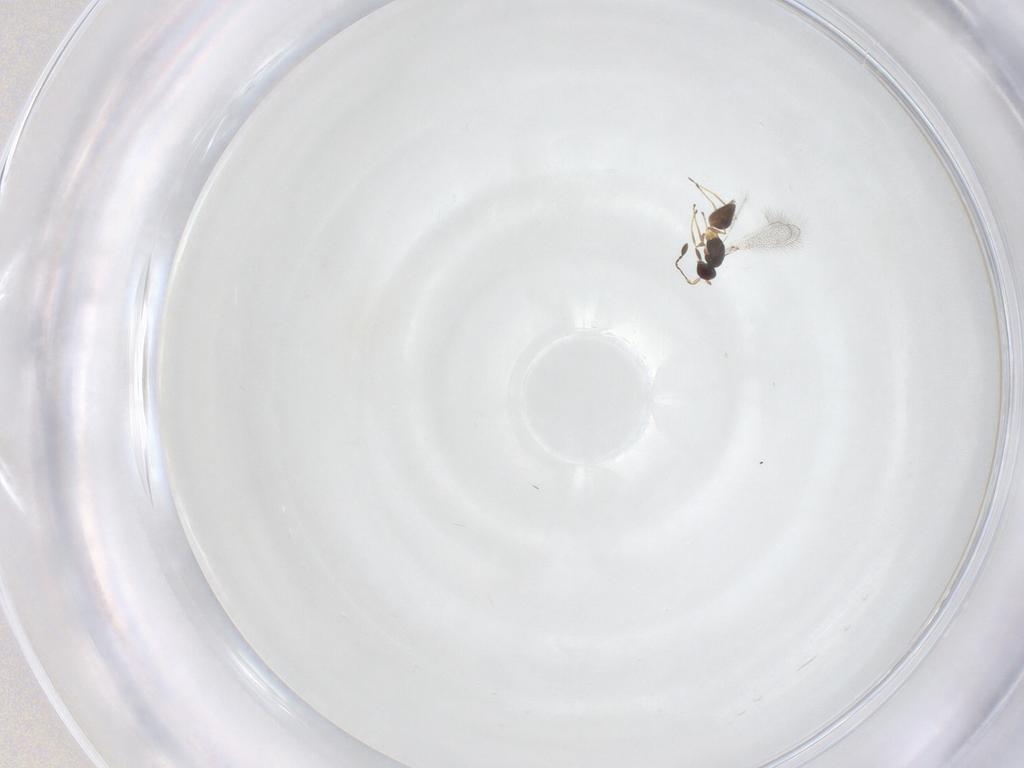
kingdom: Animalia
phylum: Arthropoda
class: Insecta
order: Hymenoptera
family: Mymaridae
